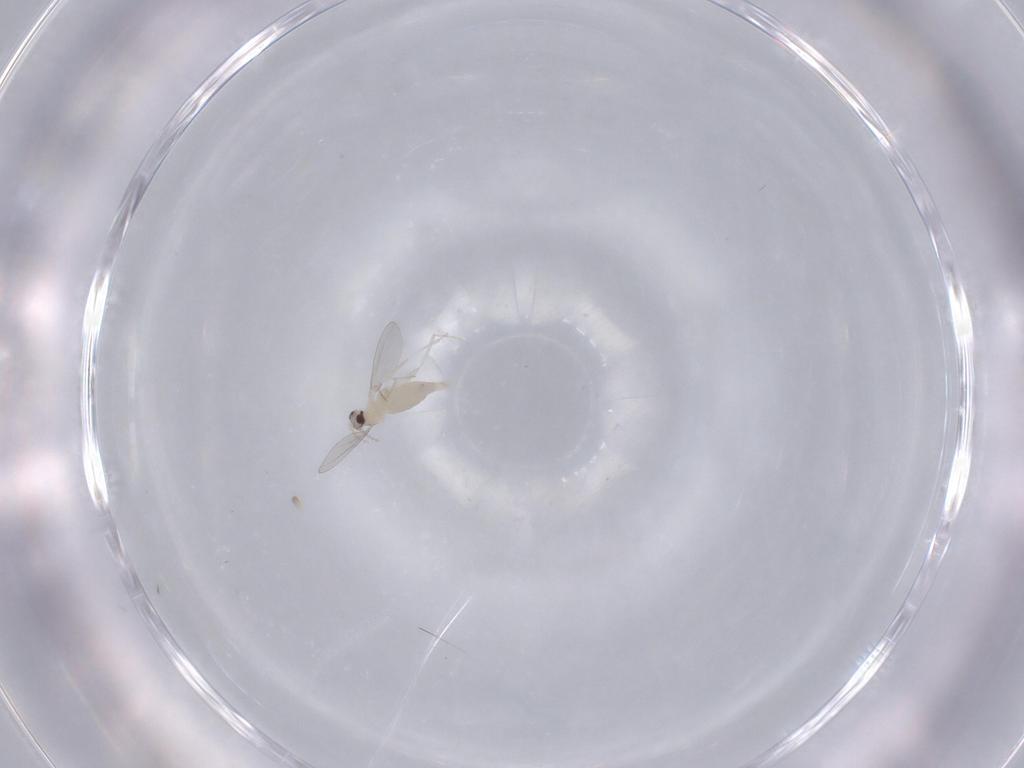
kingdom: Animalia
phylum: Arthropoda
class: Insecta
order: Diptera
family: Cecidomyiidae
